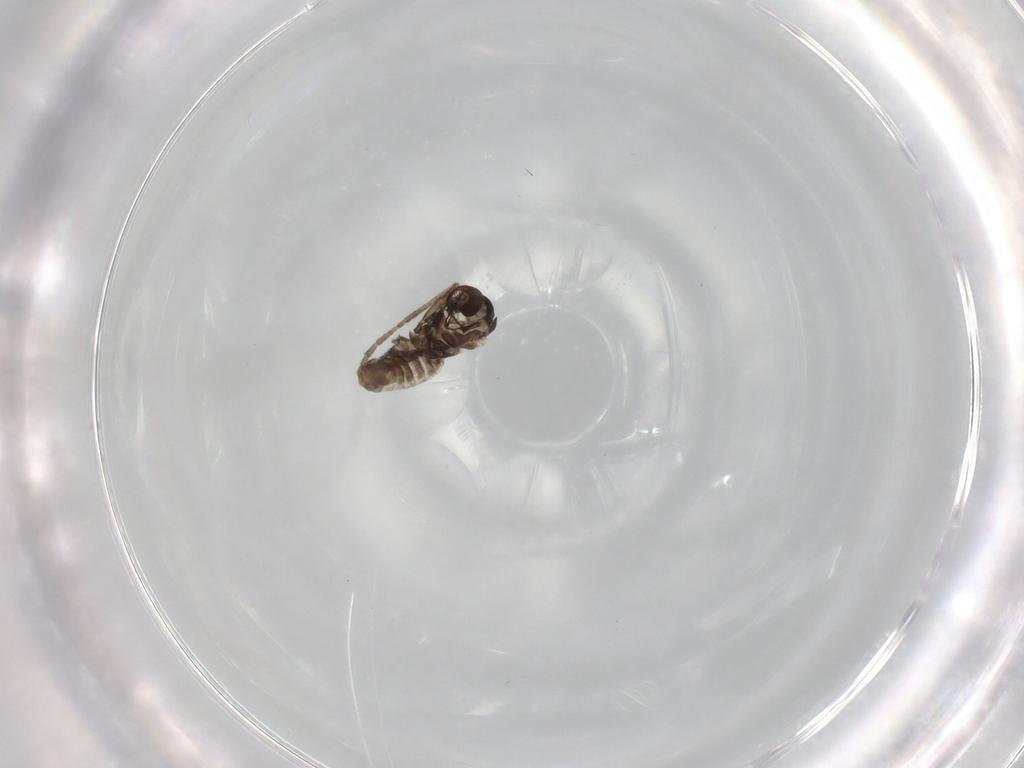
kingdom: Animalia
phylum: Arthropoda
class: Insecta
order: Diptera
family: Cecidomyiidae
